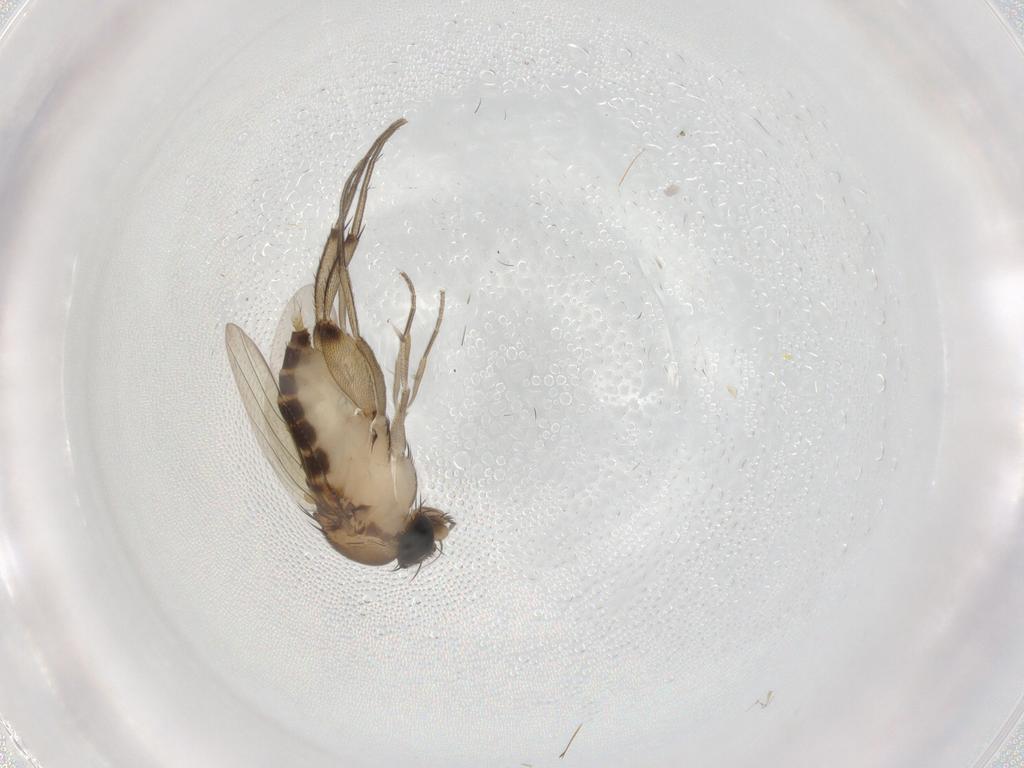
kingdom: Animalia
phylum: Arthropoda
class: Insecta
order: Diptera
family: Phoridae
